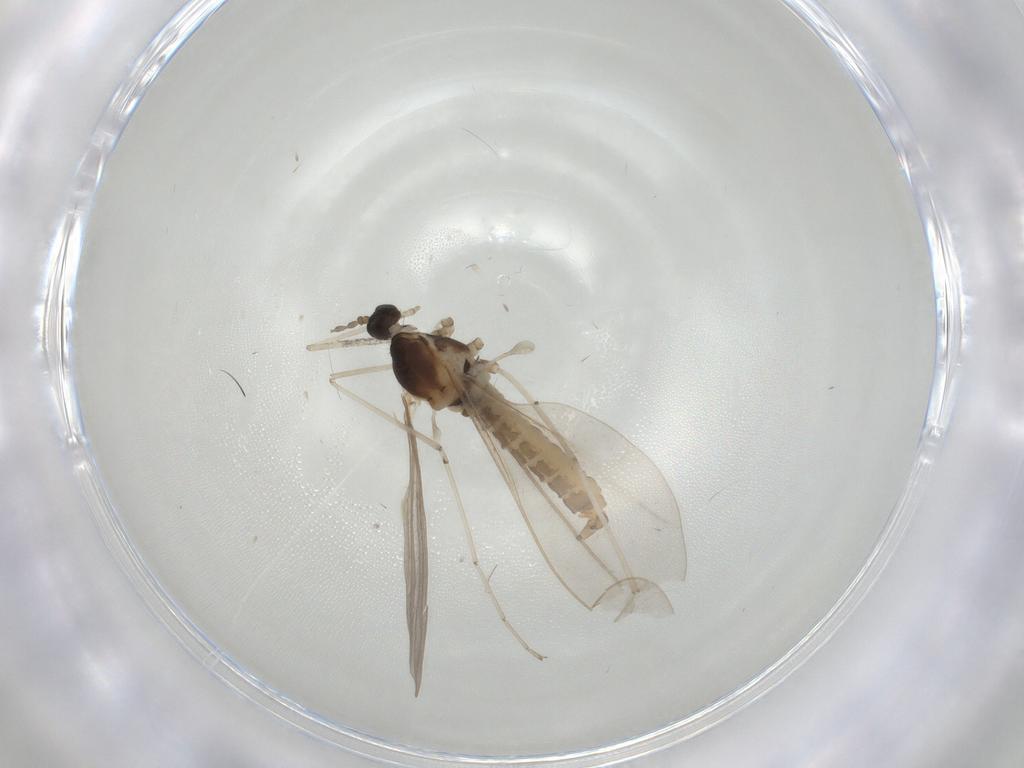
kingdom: Animalia
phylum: Arthropoda
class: Insecta
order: Diptera
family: Cecidomyiidae
